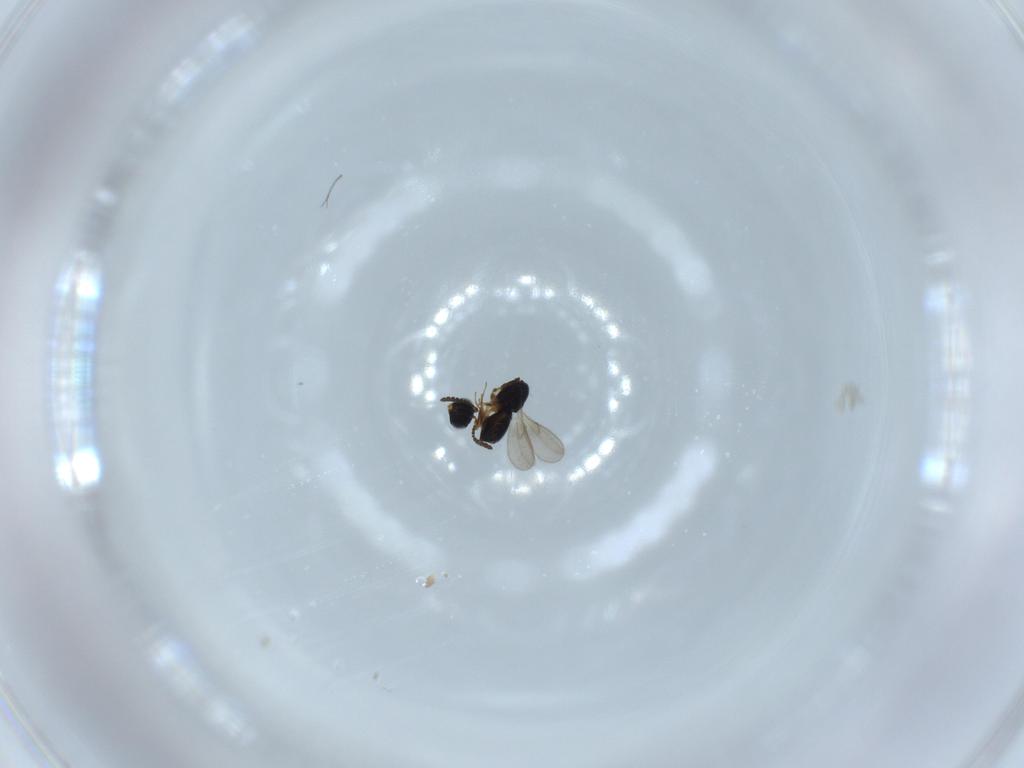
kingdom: Animalia
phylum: Arthropoda
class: Insecta
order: Hymenoptera
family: Scelionidae
